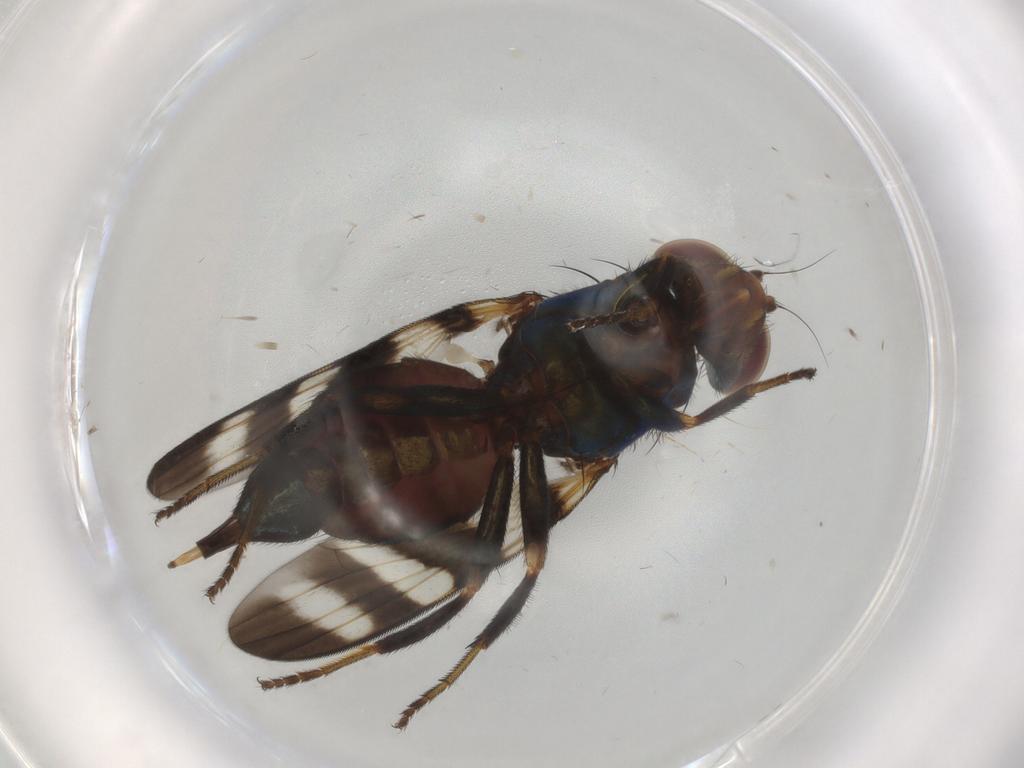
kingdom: Animalia
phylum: Arthropoda
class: Insecta
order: Diptera
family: Ulidiidae
